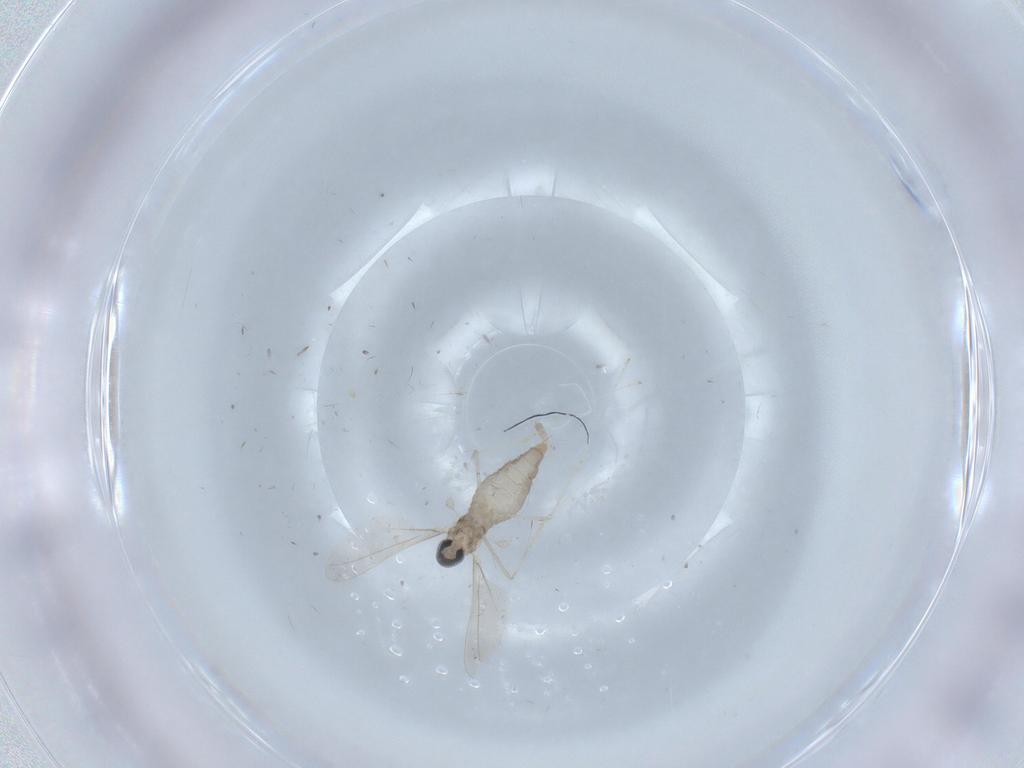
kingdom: Animalia
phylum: Arthropoda
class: Insecta
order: Diptera
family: Cecidomyiidae
